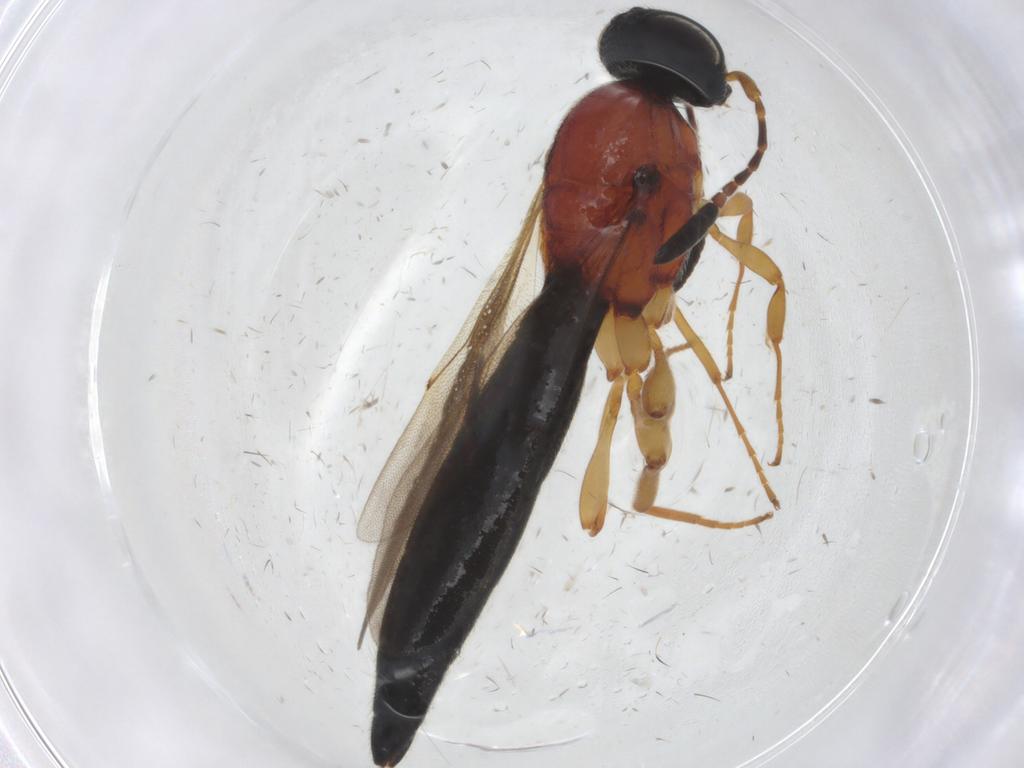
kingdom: Animalia
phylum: Arthropoda
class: Insecta
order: Hymenoptera
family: Scelionidae
